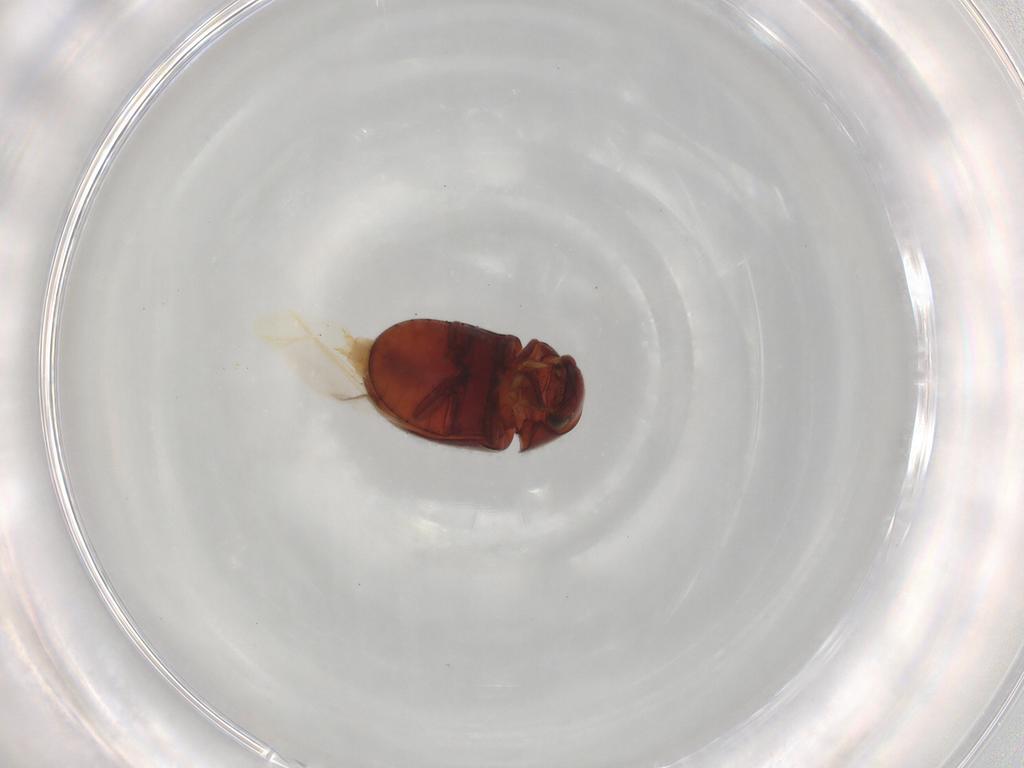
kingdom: Animalia
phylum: Arthropoda
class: Insecta
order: Coleoptera
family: Ptinidae
